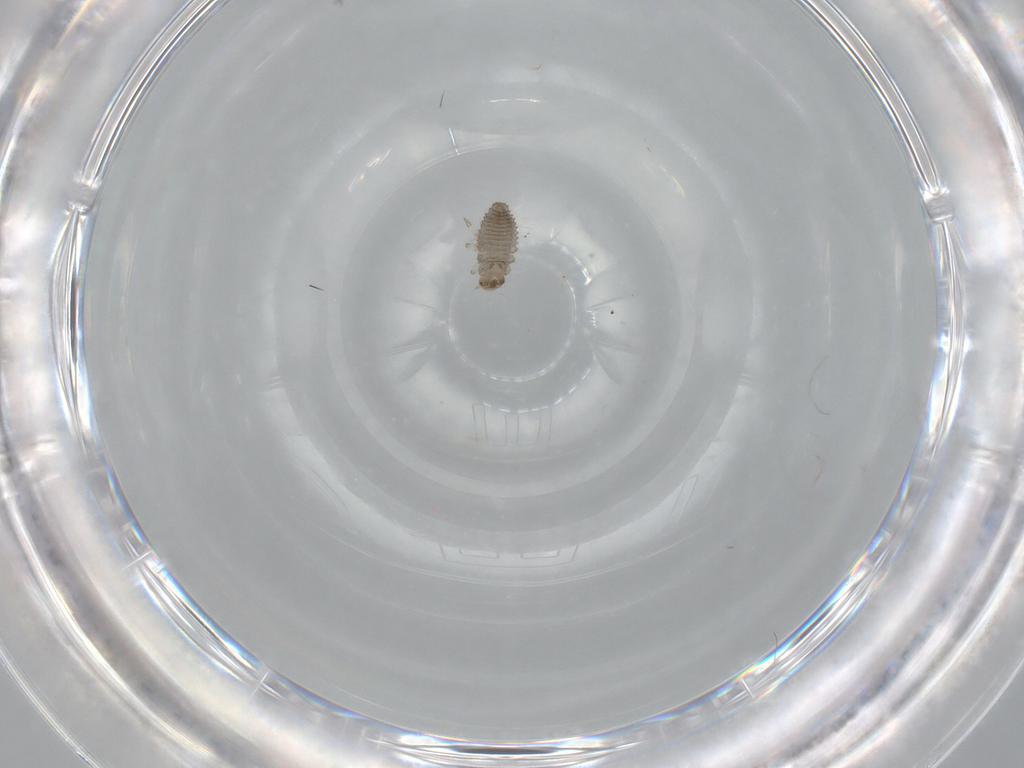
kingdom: Animalia
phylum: Arthropoda
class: Insecta
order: Coleoptera
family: Coccinellidae
